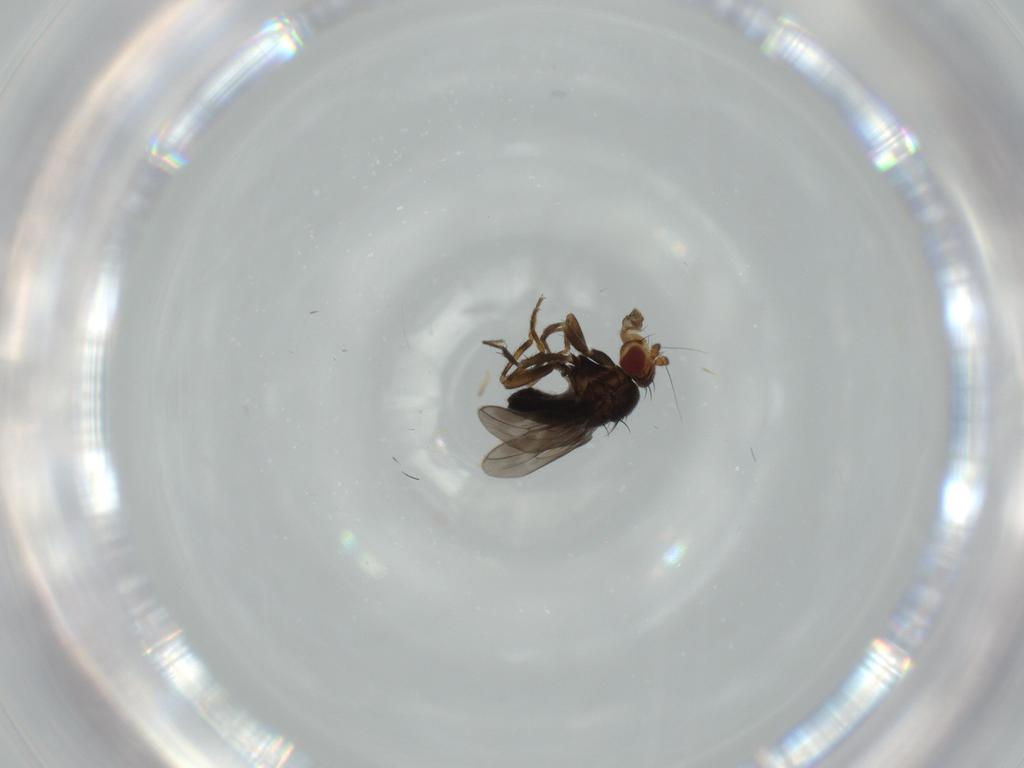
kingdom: Animalia
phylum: Arthropoda
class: Insecta
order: Diptera
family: Sphaeroceridae
